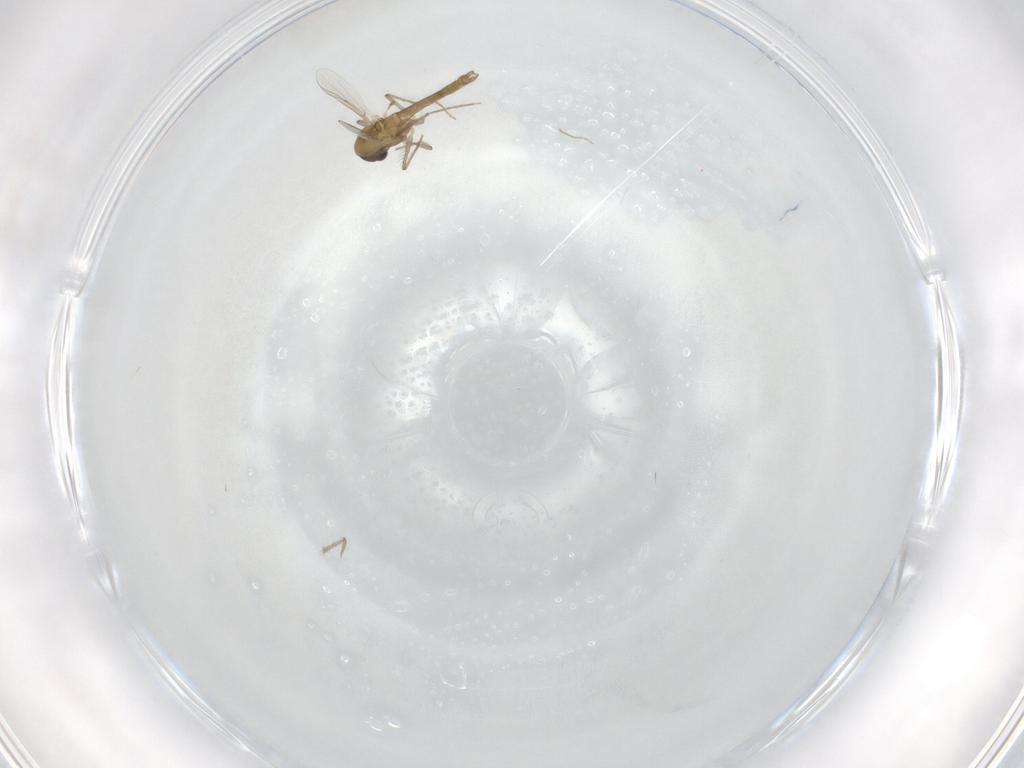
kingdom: Animalia
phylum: Arthropoda
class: Insecta
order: Diptera
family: Chironomidae
